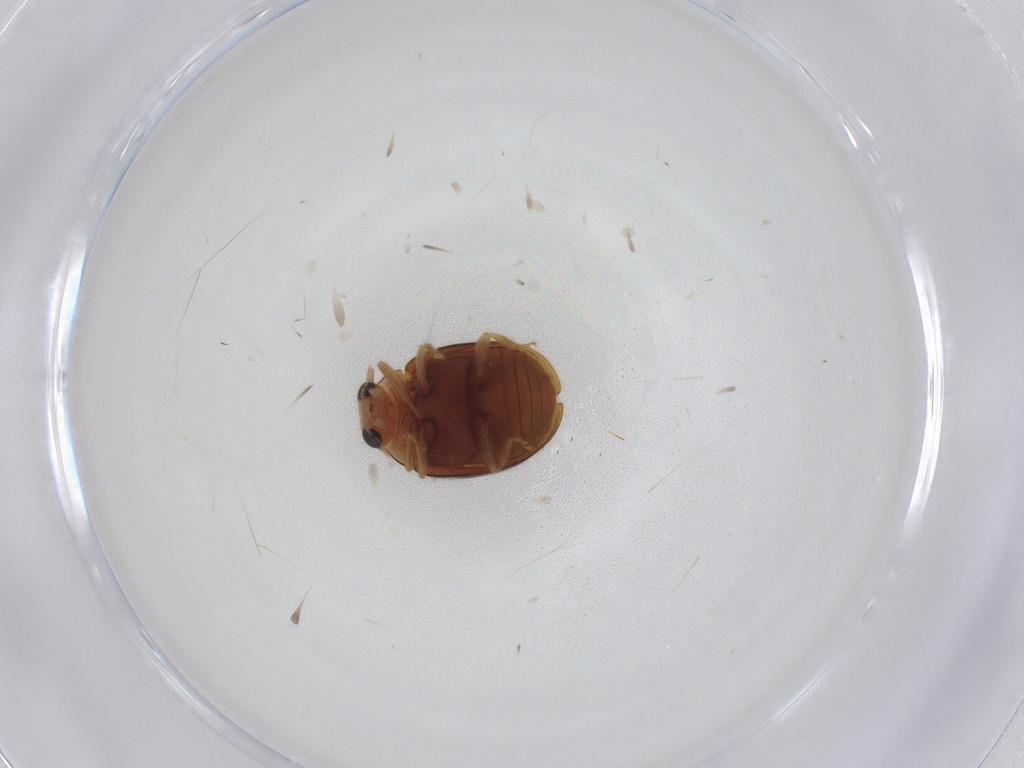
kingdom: Animalia
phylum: Arthropoda
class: Insecta
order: Coleoptera
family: Coccinellidae
